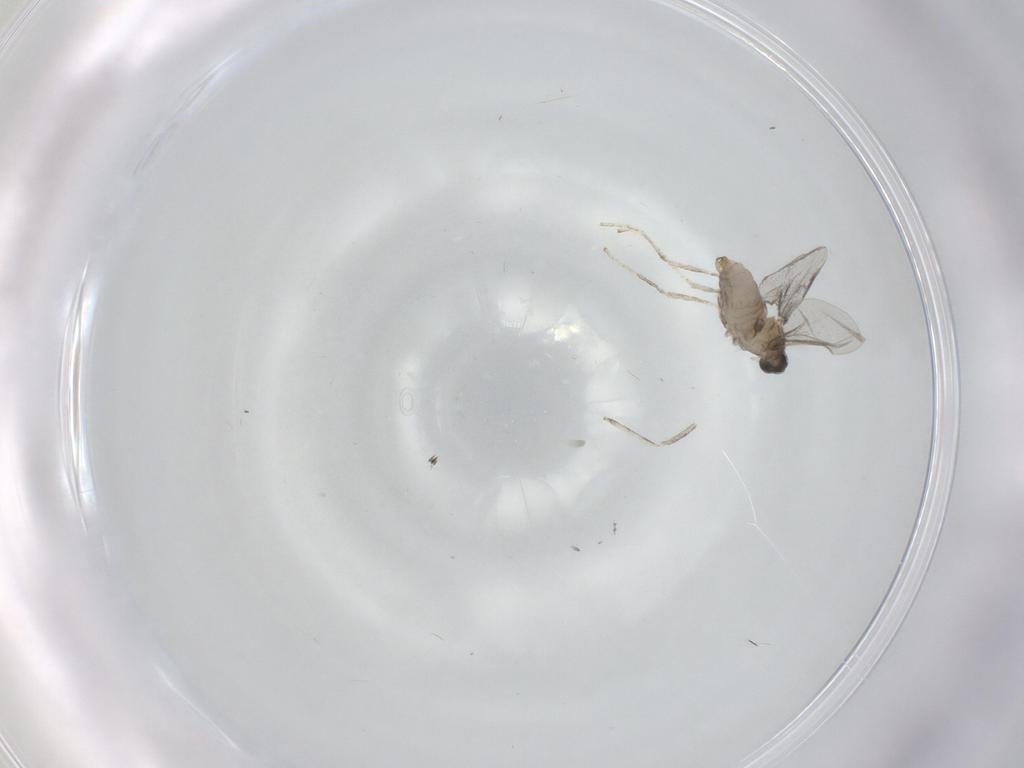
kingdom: Animalia
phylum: Arthropoda
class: Insecta
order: Diptera
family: Cecidomyiidae
